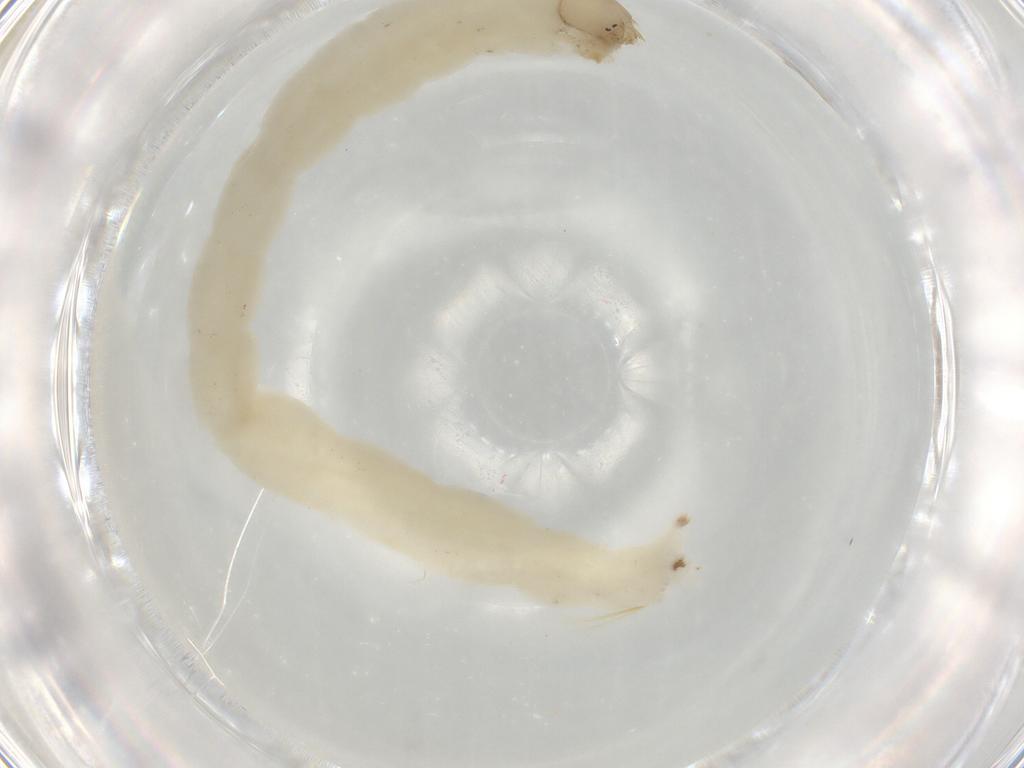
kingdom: Animalia
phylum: Arthropoda
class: Insecta
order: Diptera
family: Chironomidae
